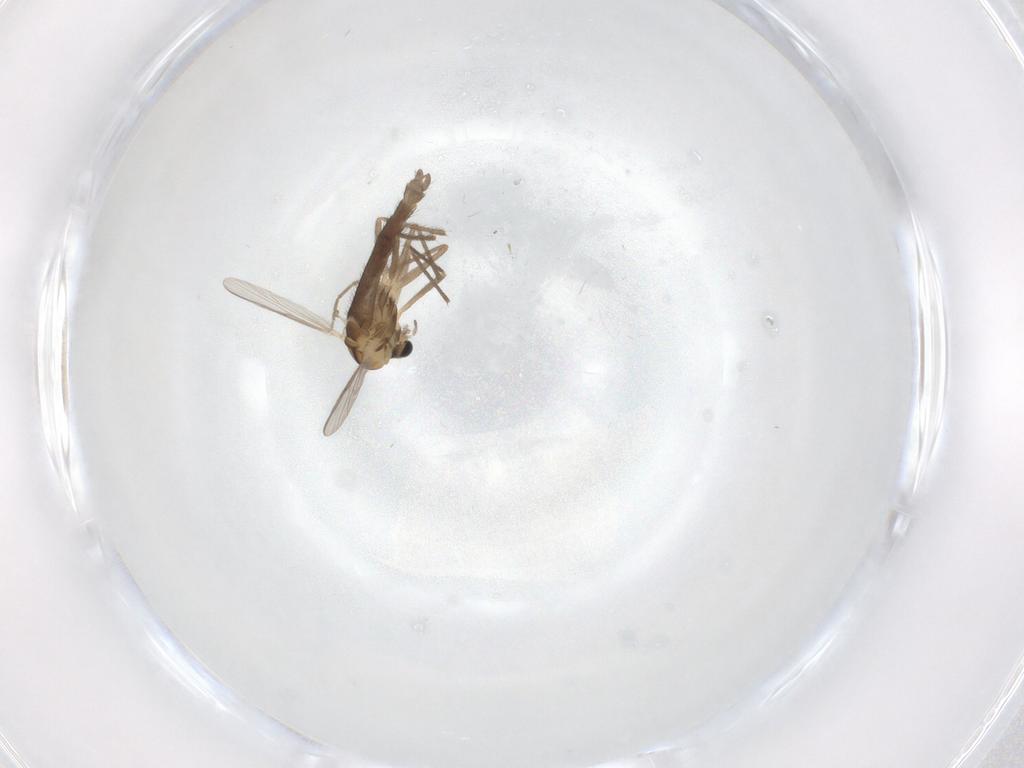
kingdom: Animalia
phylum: Arthropoda
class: Insecta
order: Diptera
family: Chironomidae
